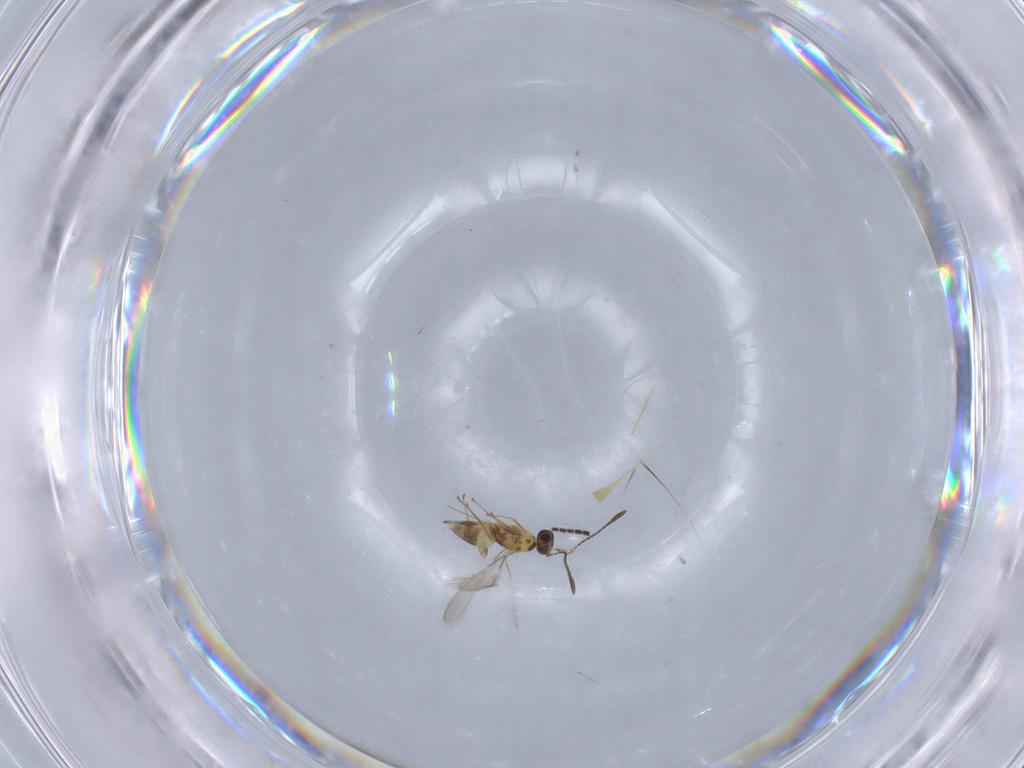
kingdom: Animalia
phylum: Arthropoda
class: Insecta
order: Hymenoptera
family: Mymaridae
